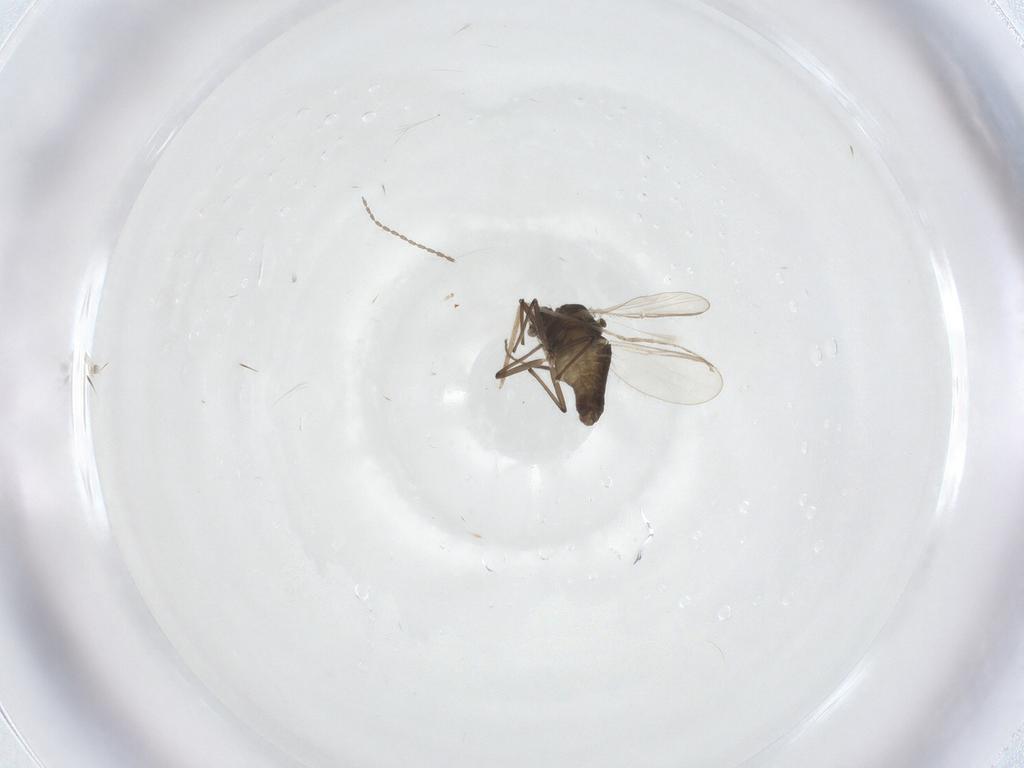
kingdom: Animalia
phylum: Arthropoda
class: Insecta
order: Diptera
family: Chironomidae
